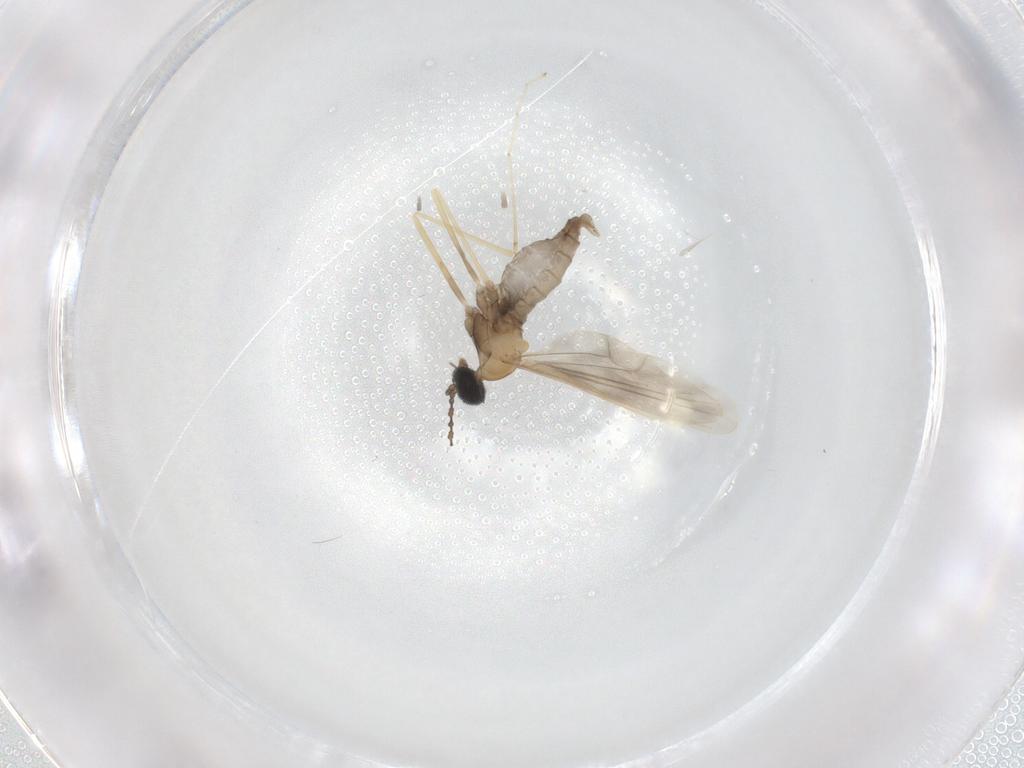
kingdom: Animalia
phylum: Arthropoda
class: Insecta
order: Diptera
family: Cecidomyiidae
